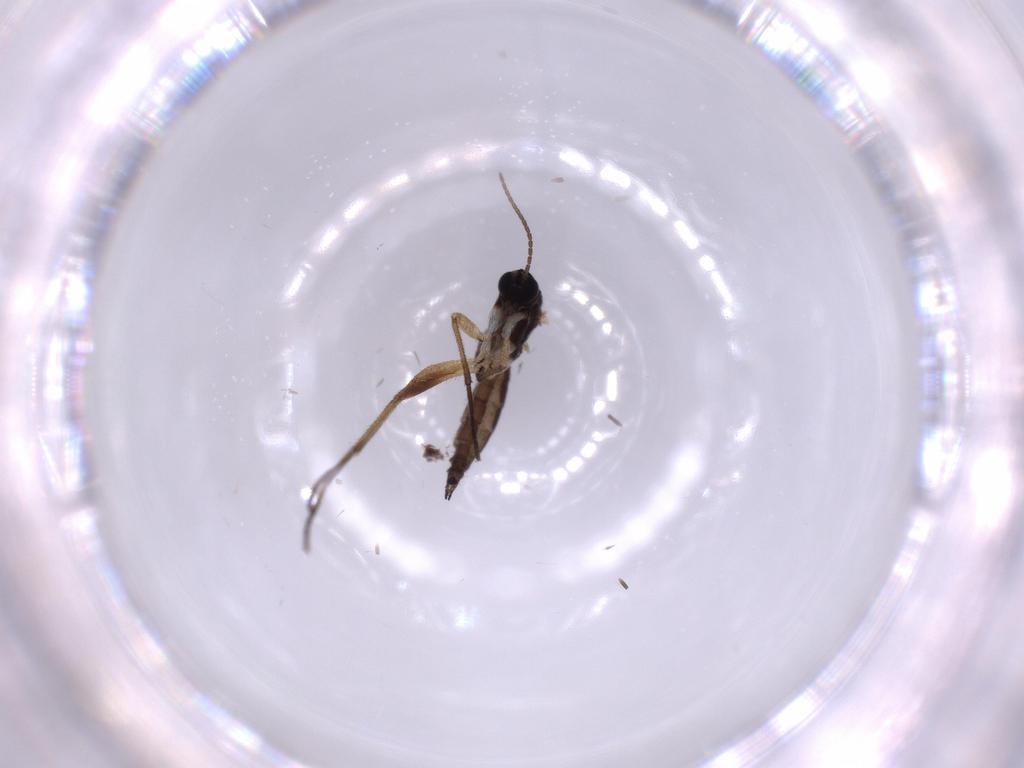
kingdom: Animalia
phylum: Arthropoda
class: Insecta
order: Diptera
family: Sciaridae
